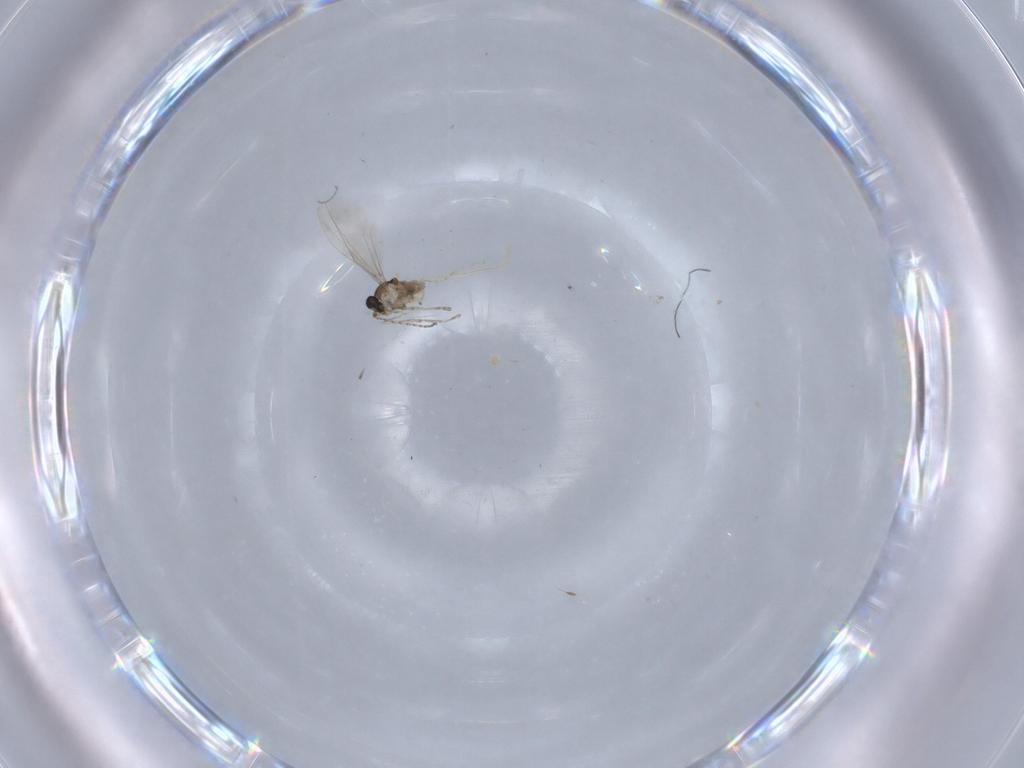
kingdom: Animalia
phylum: Arthropoda
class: Insecta
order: Diptera
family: Cecidomyiidae
